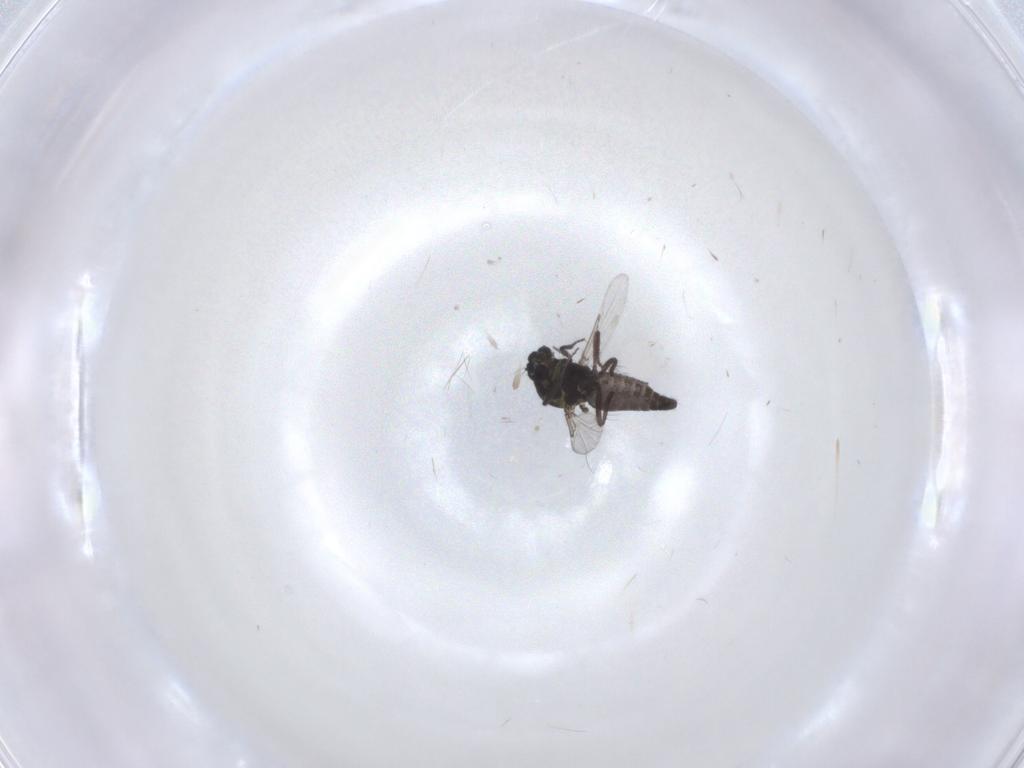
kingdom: Animalia
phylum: Arthropoda
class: Insecta
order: Diptera
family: Ceratopogonidae
